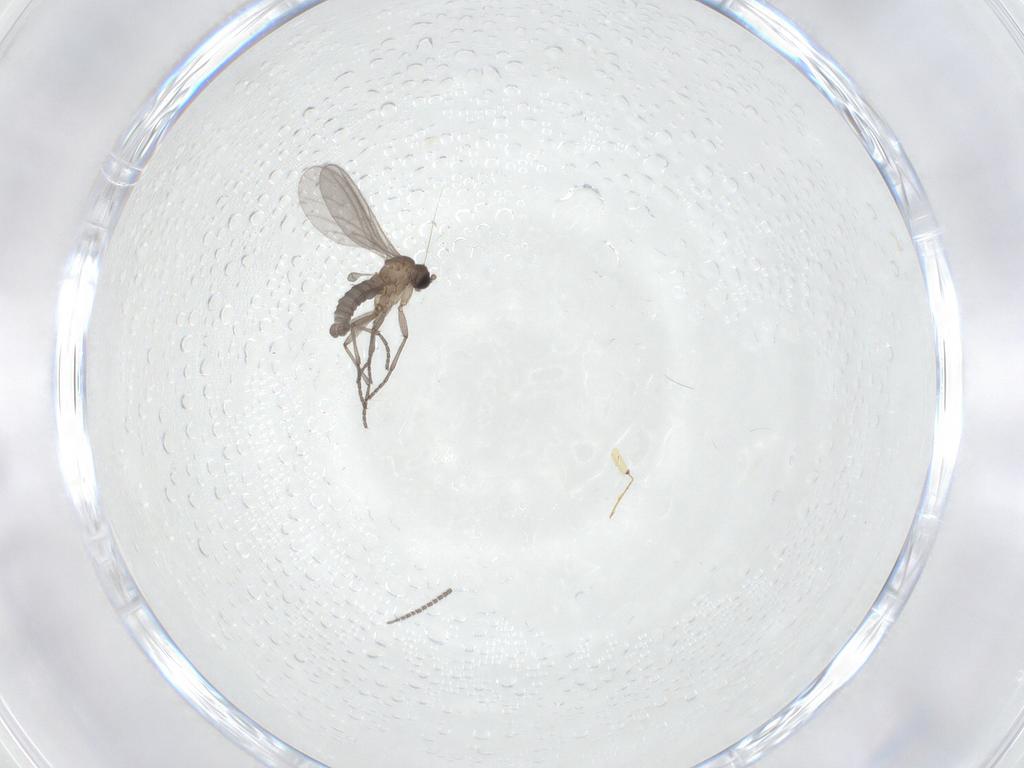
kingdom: Animalia
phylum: Arthropoda
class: Insecta
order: Diptera
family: Sciaridae
